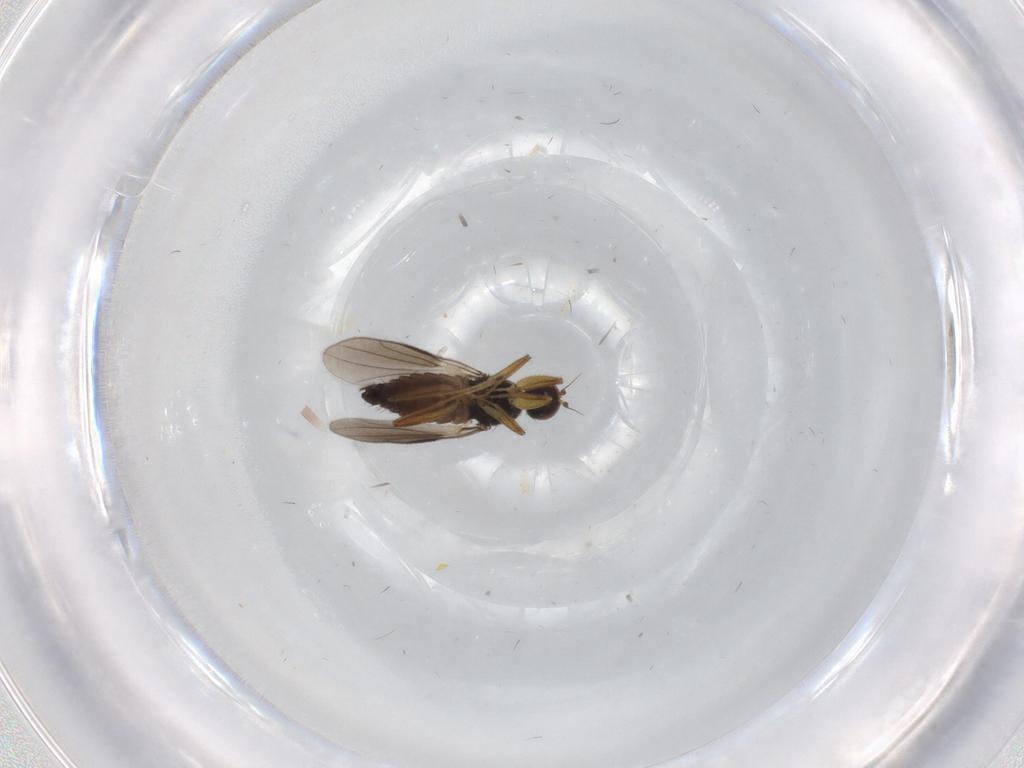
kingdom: Animalia
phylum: Arthropoda
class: Insecta
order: Diptera
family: Hybotidae
